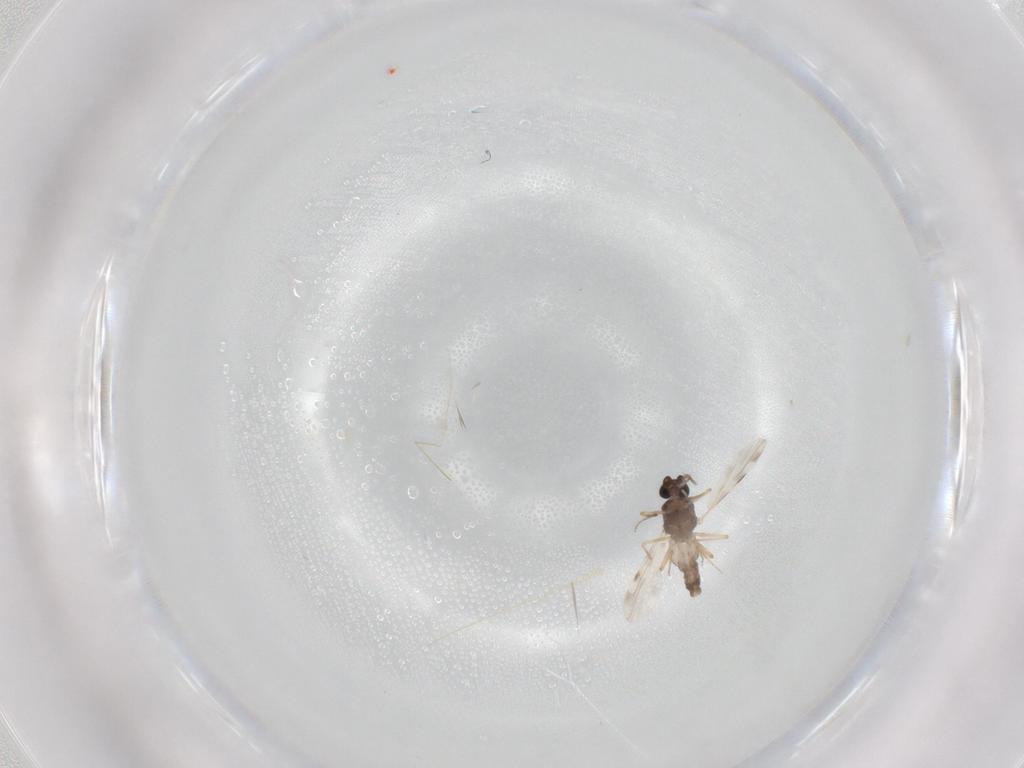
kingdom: Animalia
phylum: Arthropoda
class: Insecta
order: Diptera
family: Ceratopogonidae
